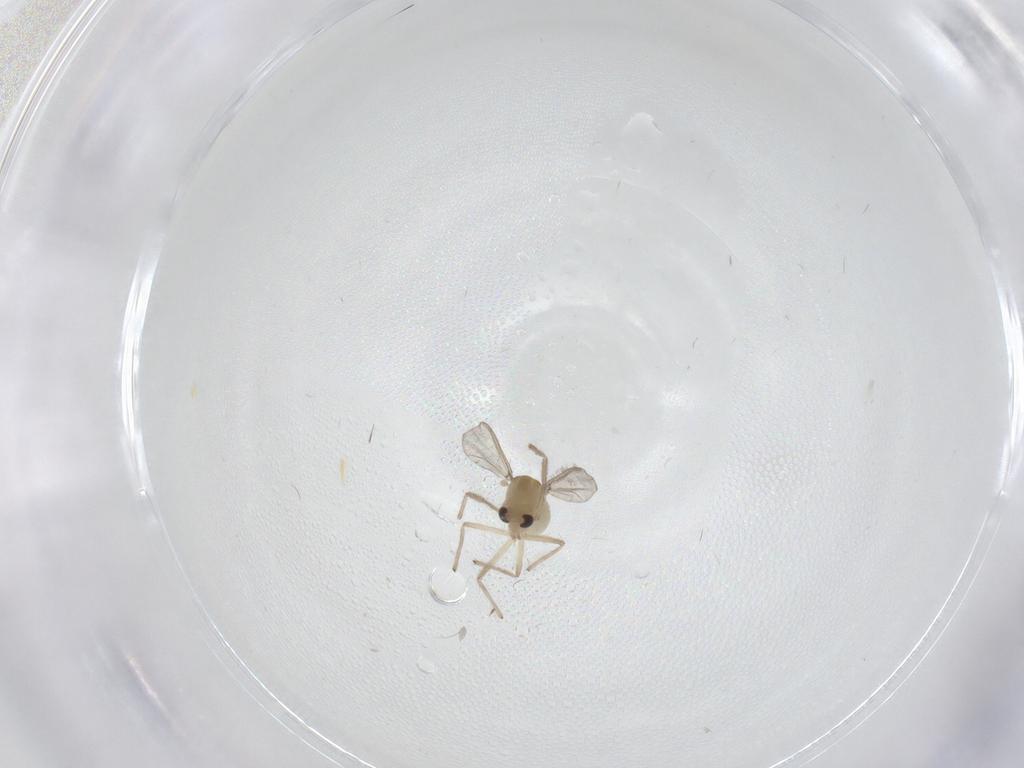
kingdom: Animalia
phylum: Arthropoda
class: Insecta
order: Diptera
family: Chironomidae
